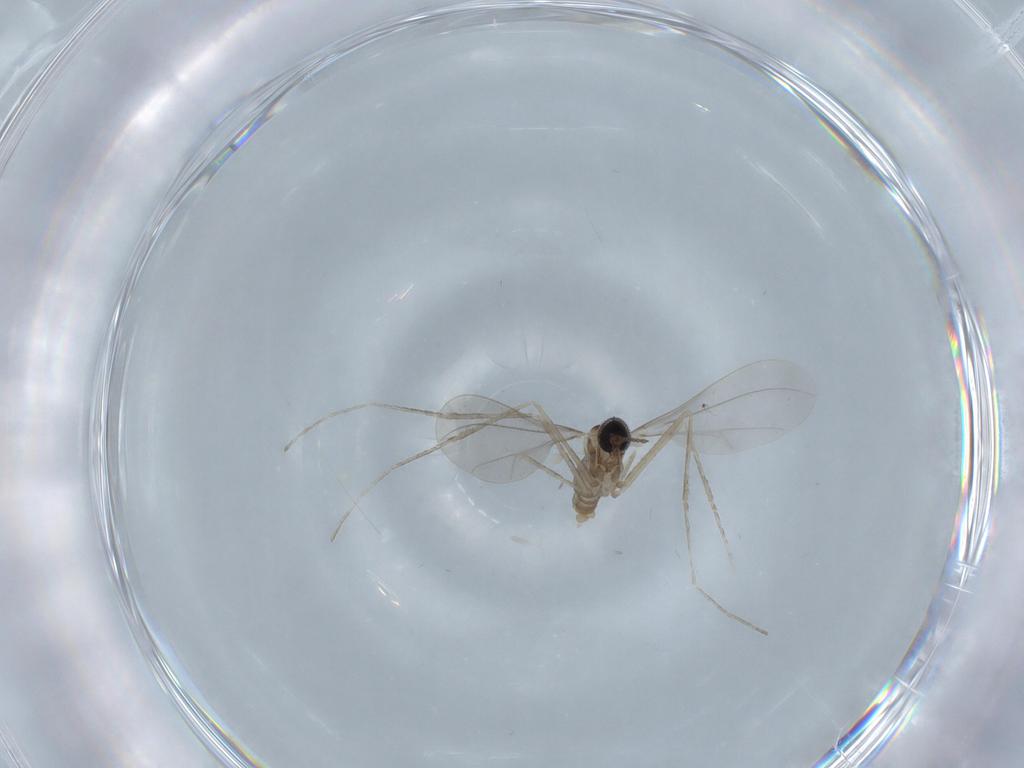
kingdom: Animalia
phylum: Arthropoda
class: Insecta
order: Diptera
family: Cecidomyiidae
